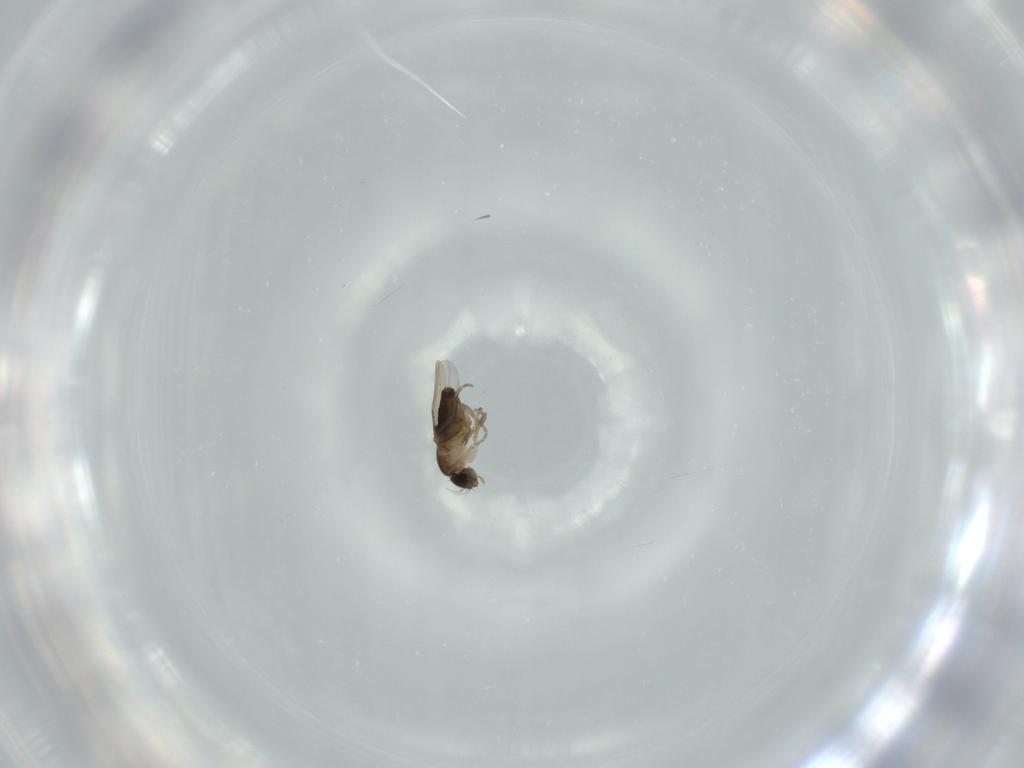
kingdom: Animalia
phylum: Arthropoda
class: Insecta
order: Diptera
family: Phoridae
